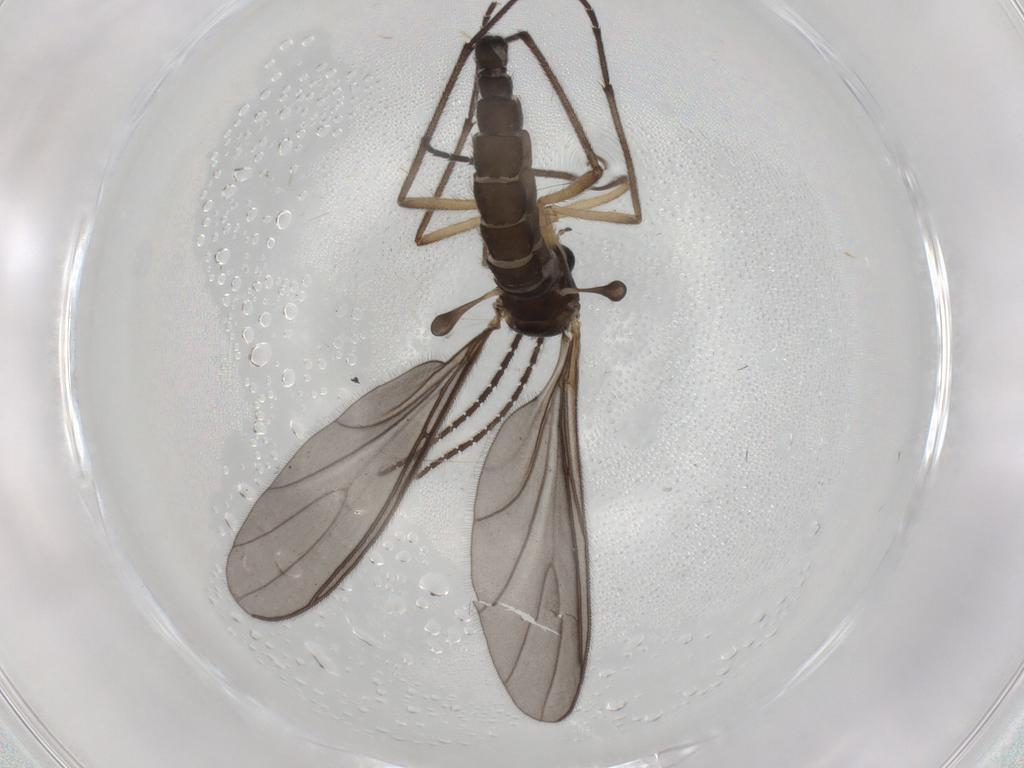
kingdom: Animalia
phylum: Arthropoda
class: Insecta
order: Diptera
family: Sciaridae
